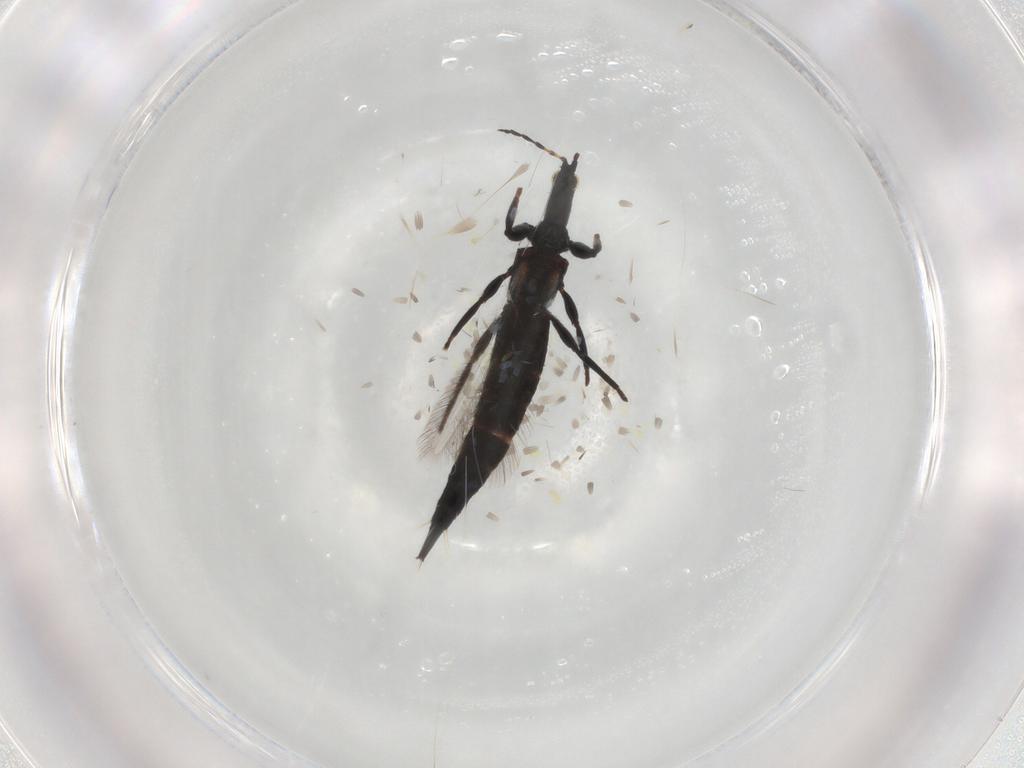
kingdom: Animalia
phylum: Arthropoda
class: Insecta
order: Thysanoptera
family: Phlaeothripidae
